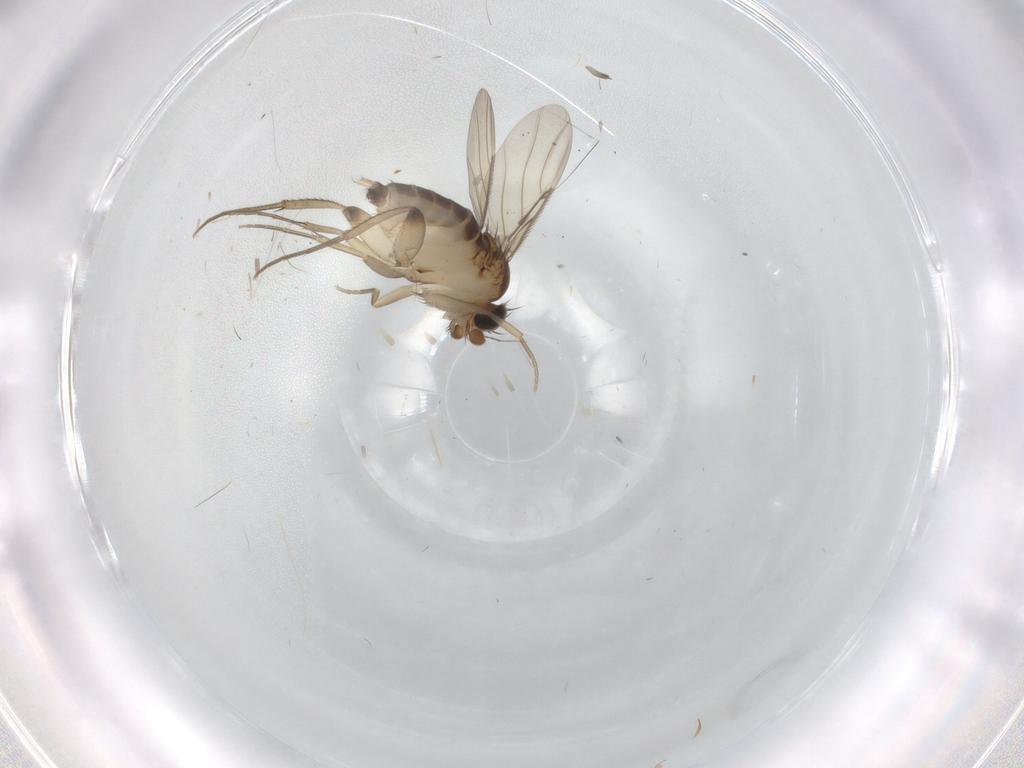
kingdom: Animalia
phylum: Arthropoda
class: Insecta
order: Diptera
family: Phoridae
